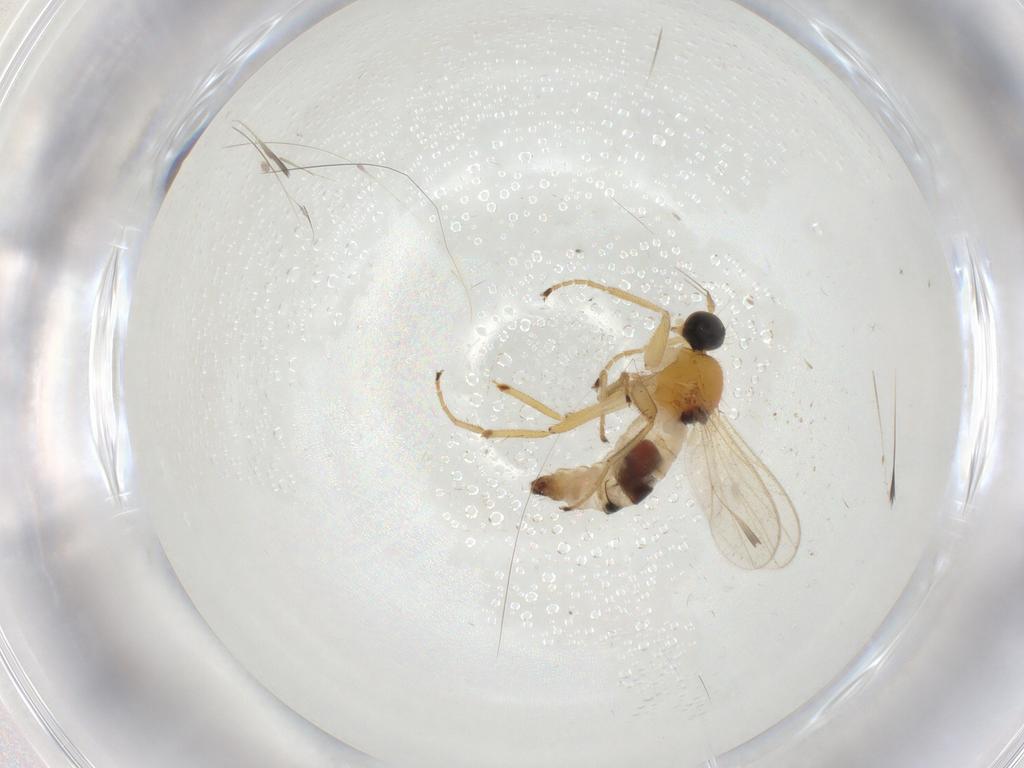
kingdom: Animalia
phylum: Arthropoda
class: Insecta
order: Diptera
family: Hybotidae
